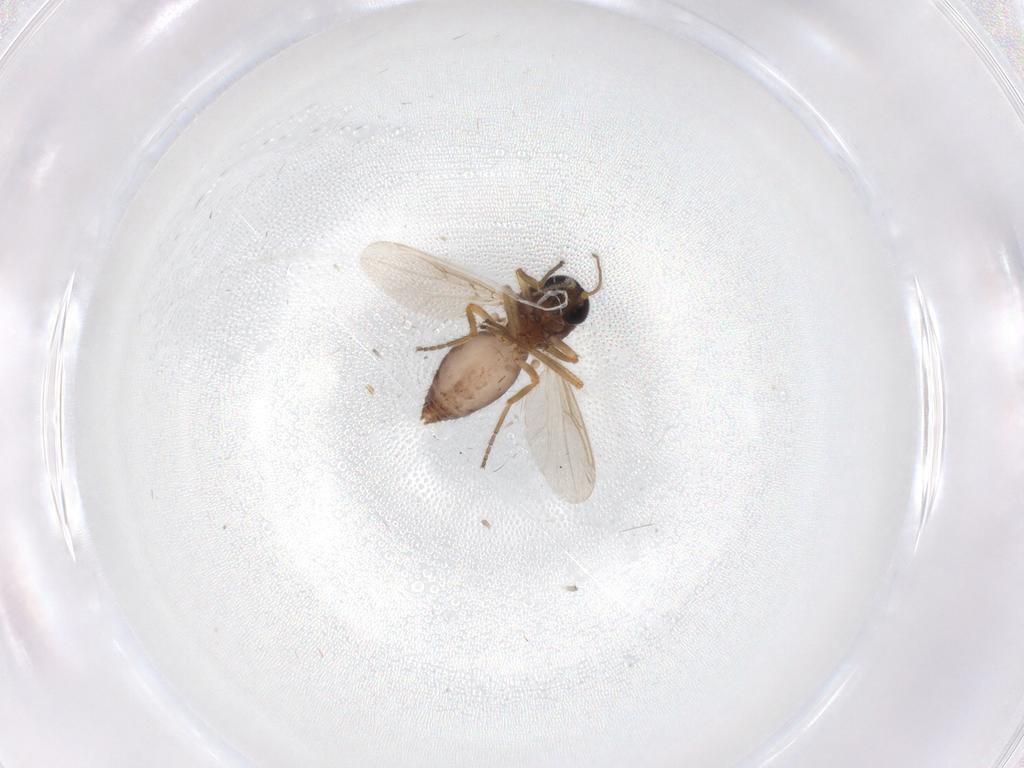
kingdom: Animalia
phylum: Arthropoda
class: Insecta
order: Diptera
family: Ceratopogonidae
